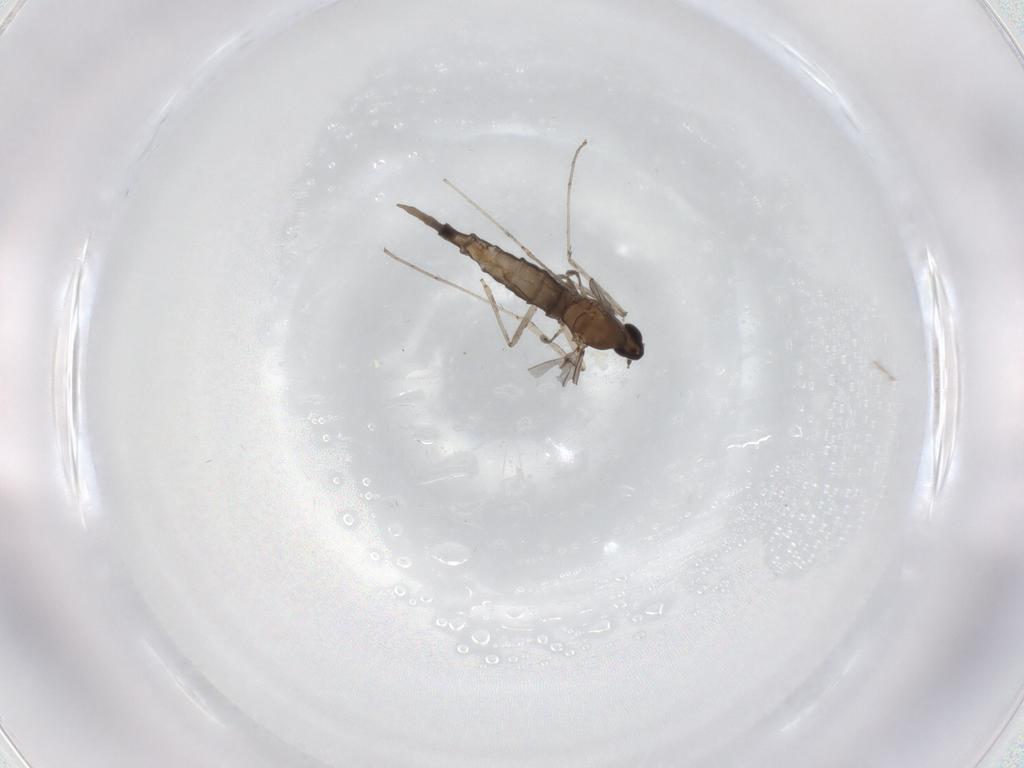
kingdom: Animalia
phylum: Arthropoda
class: Insecta
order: Diptera
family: Cecidomyiidae
